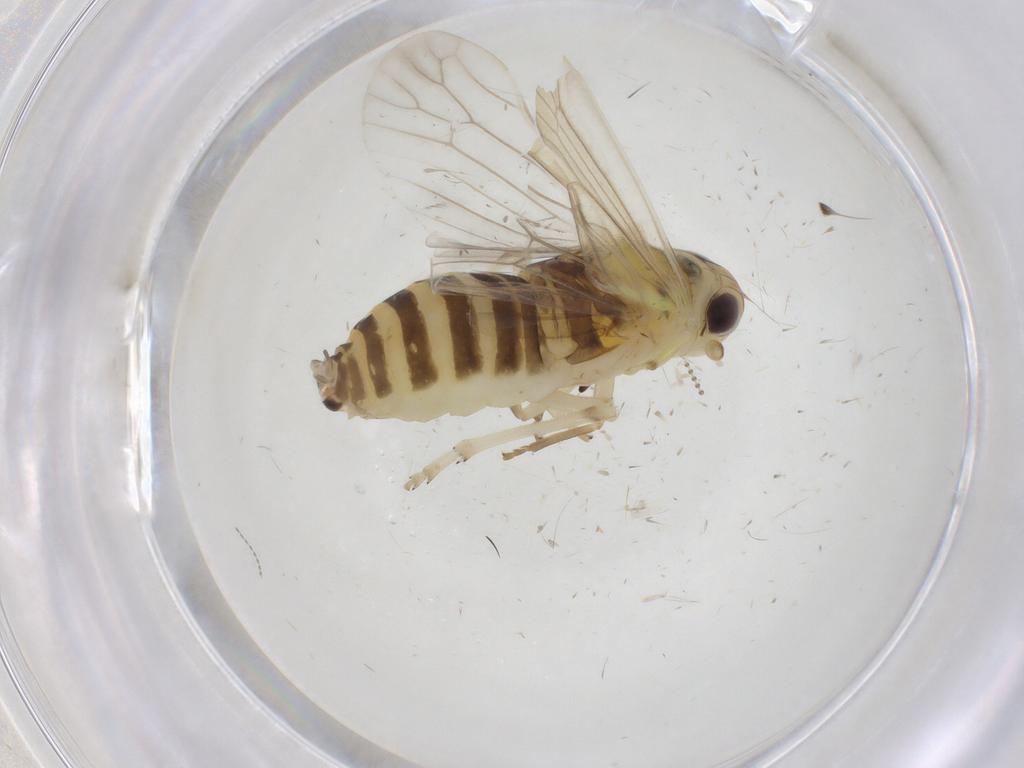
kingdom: Animalia
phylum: Arthropoda
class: Insecta
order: Hemiptera
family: Achilidae
